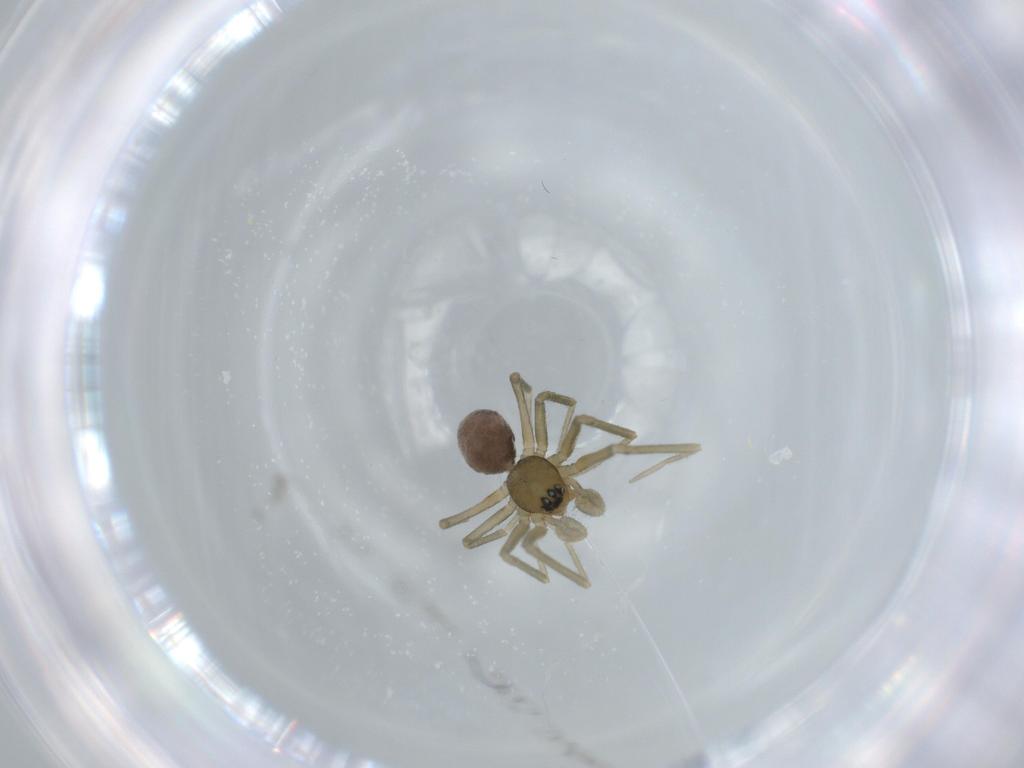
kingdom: Animalia
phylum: Arthropoda
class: Arachnida
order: Araneae
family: Linyphiidae
